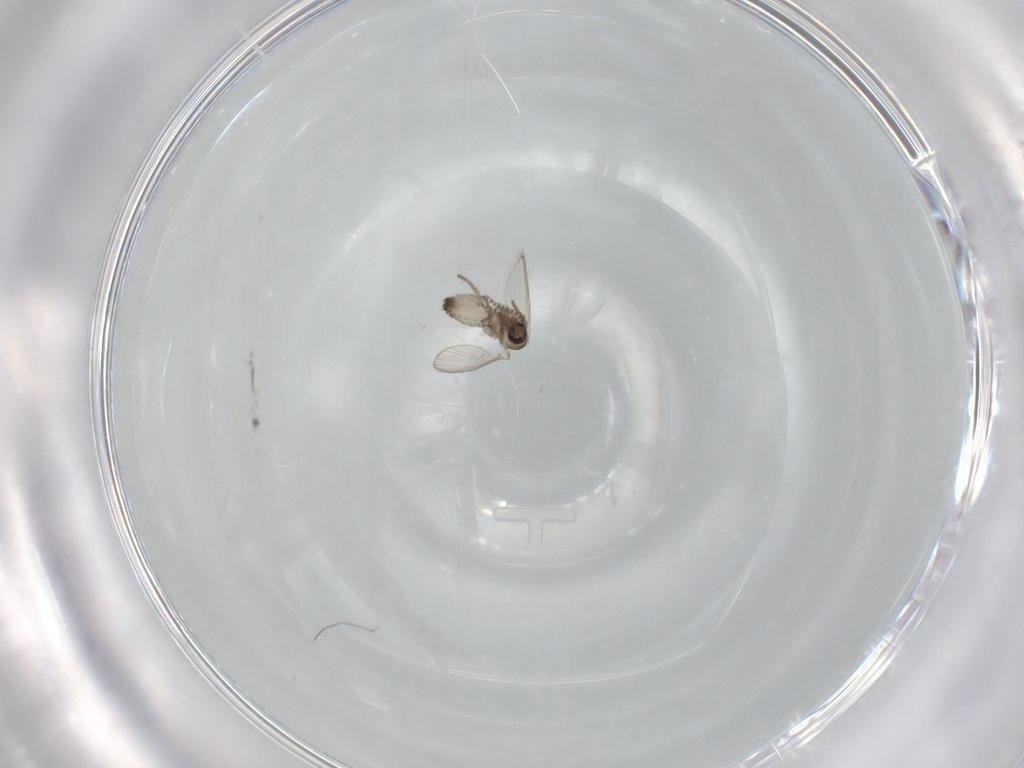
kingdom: Animalia
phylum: Arthropoda
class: Insecta
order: Diptera
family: Psychodidae
